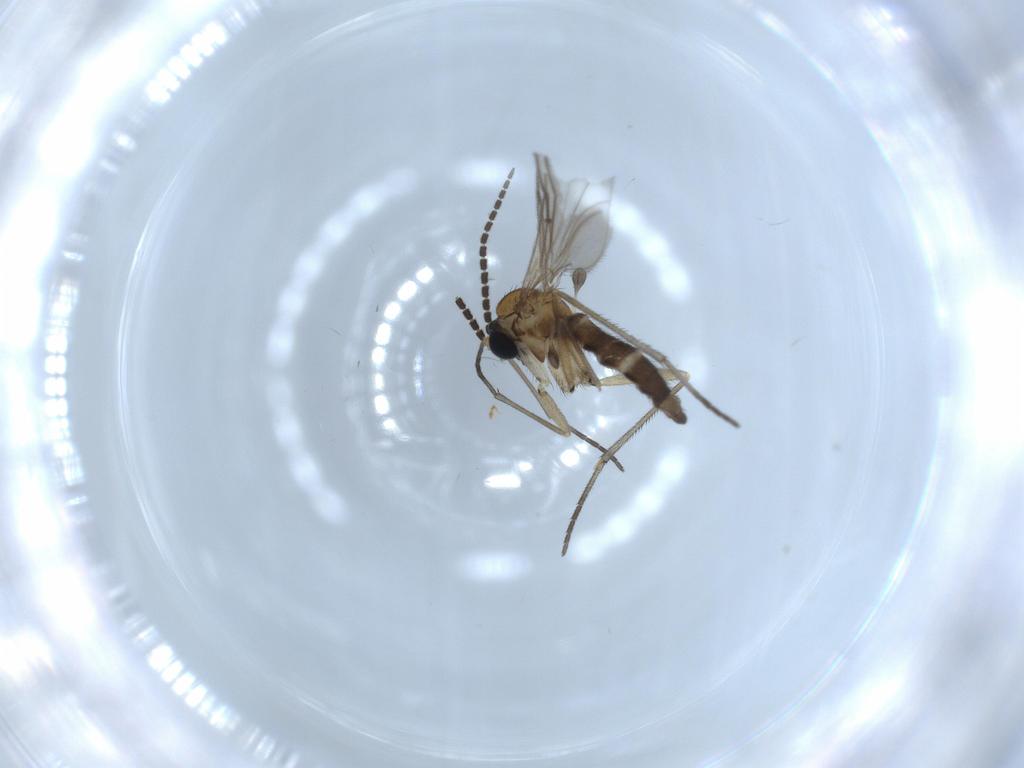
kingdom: Animalia
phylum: Arthropoda
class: Insecta
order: Diptera
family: Sciaridae
